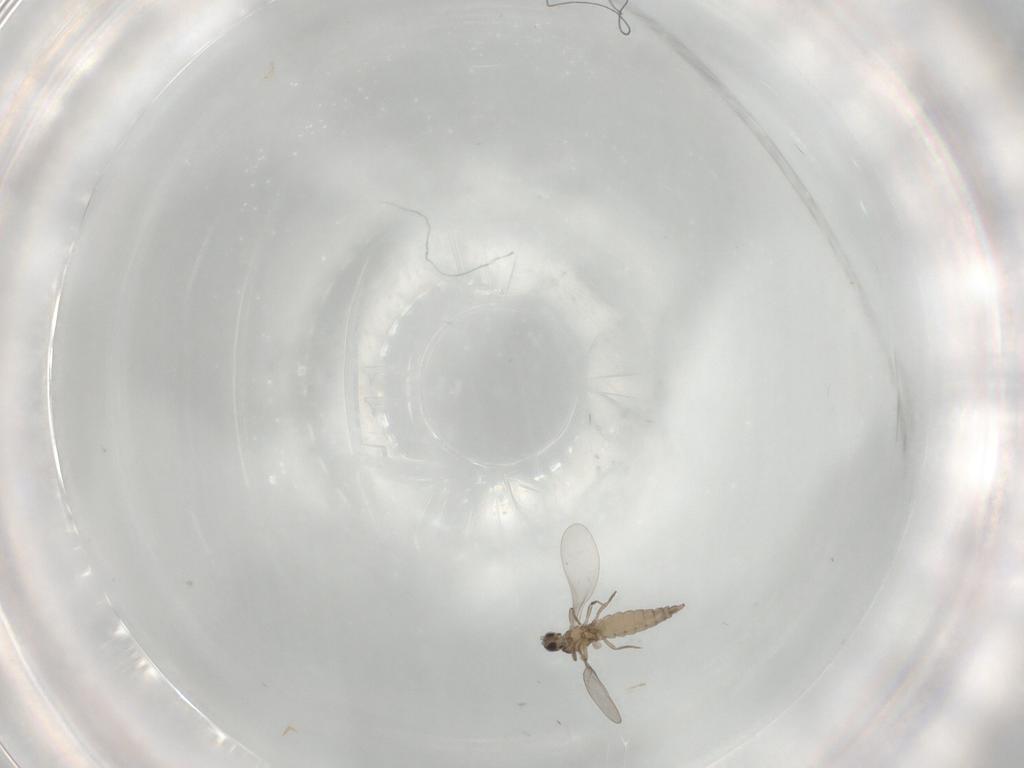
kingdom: Animalia
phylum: Arthropoda
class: Insecta
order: Diptera
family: Cecidomyiidae
